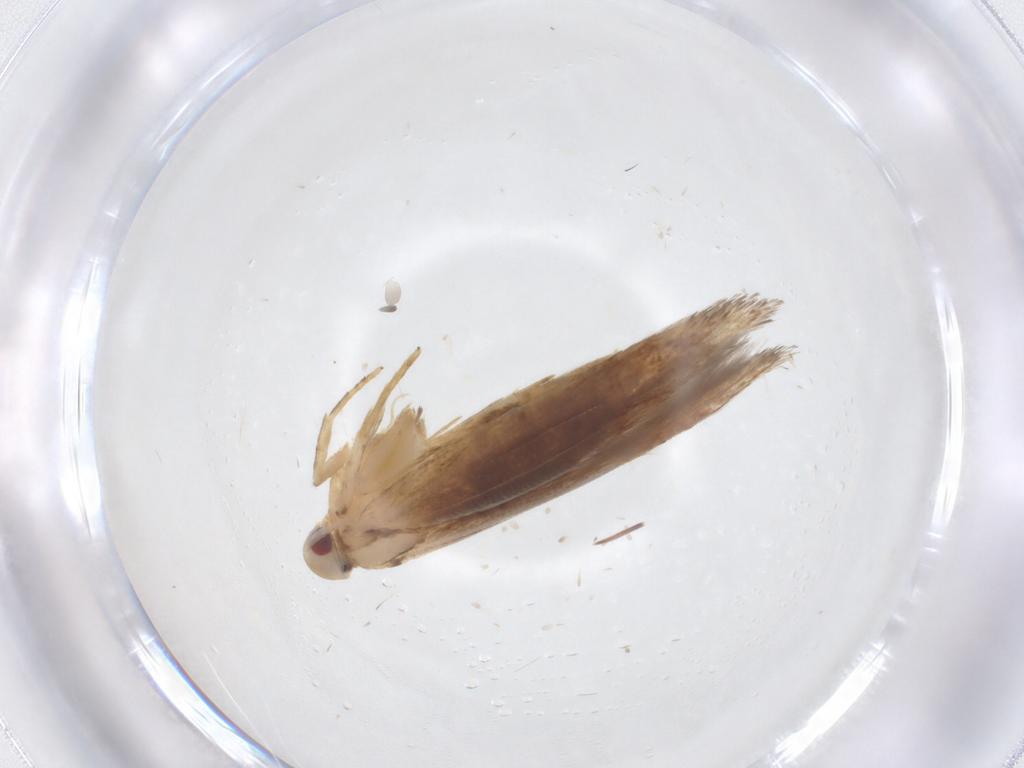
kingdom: Animalia
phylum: Arthropoda
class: Insecta
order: Lepidoptera
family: Cosmopterigidae
